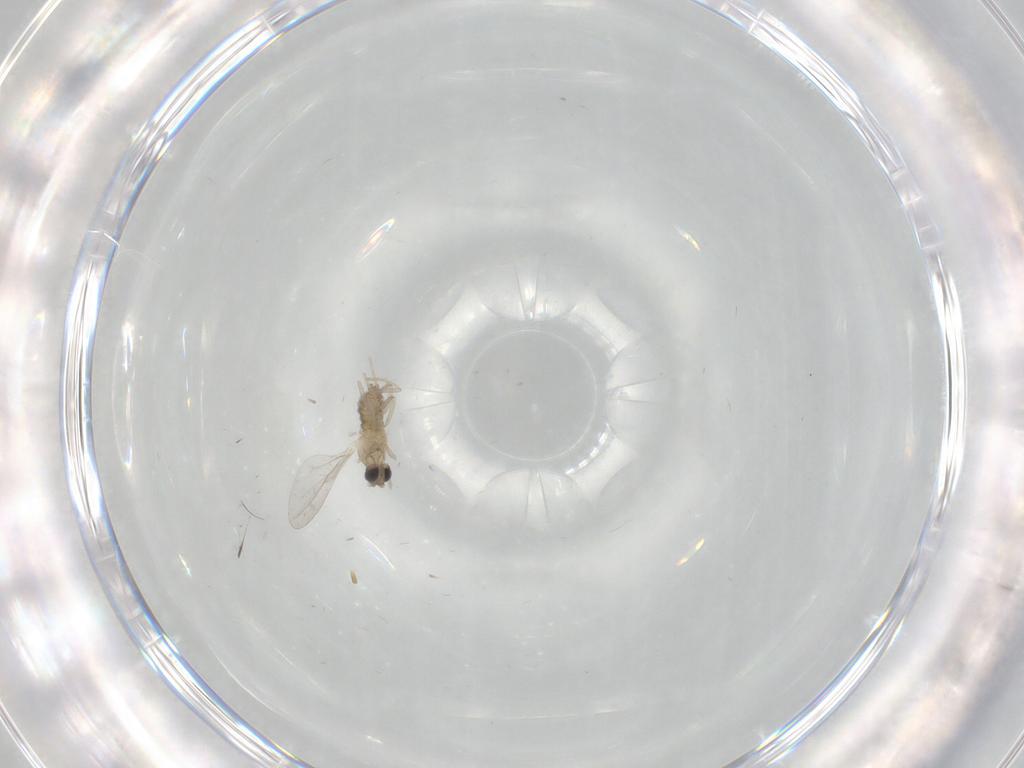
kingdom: Animalia
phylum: Arthropoda
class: Insecta
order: Diptera
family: Cecidomyiidae
